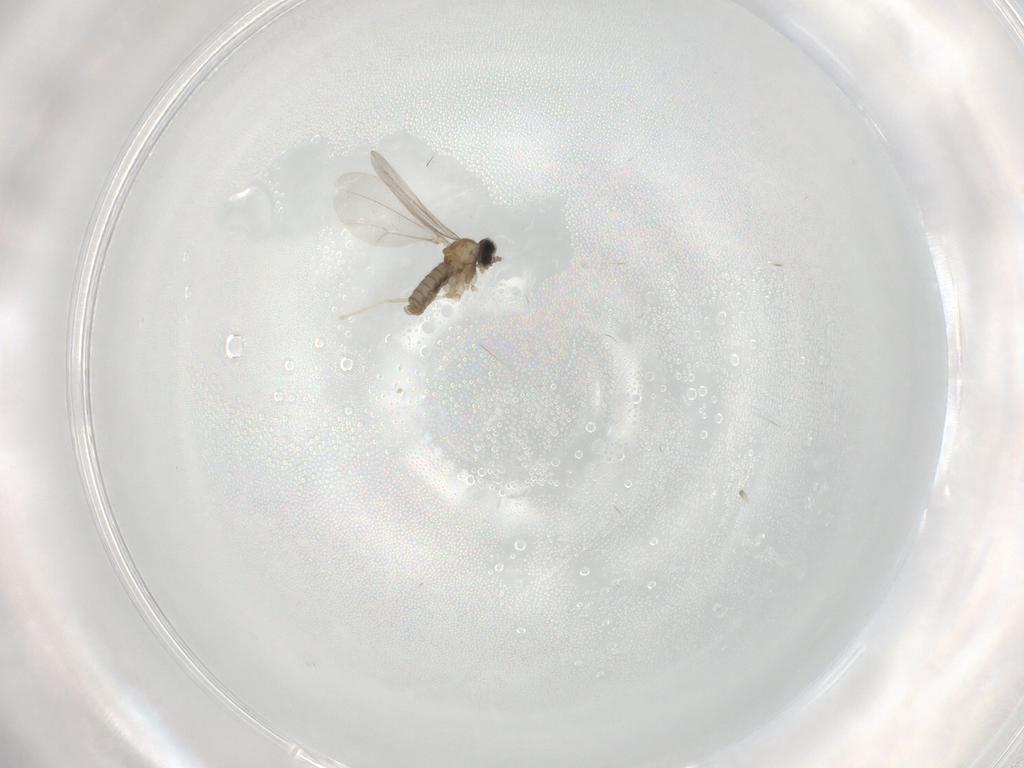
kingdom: Animalia
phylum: Arthropoda
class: Insecta
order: Diptera
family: Cecidomyiidae
